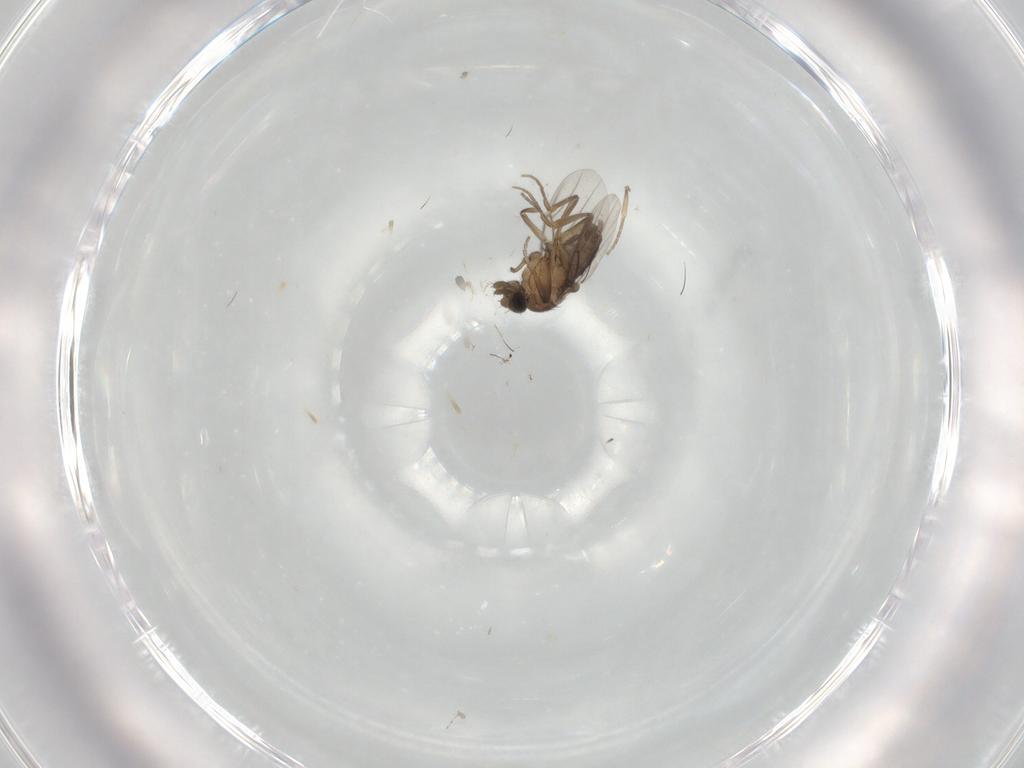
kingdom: Animalia
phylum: Arthropoda
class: Insecta
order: Diptera
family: Phoridae
